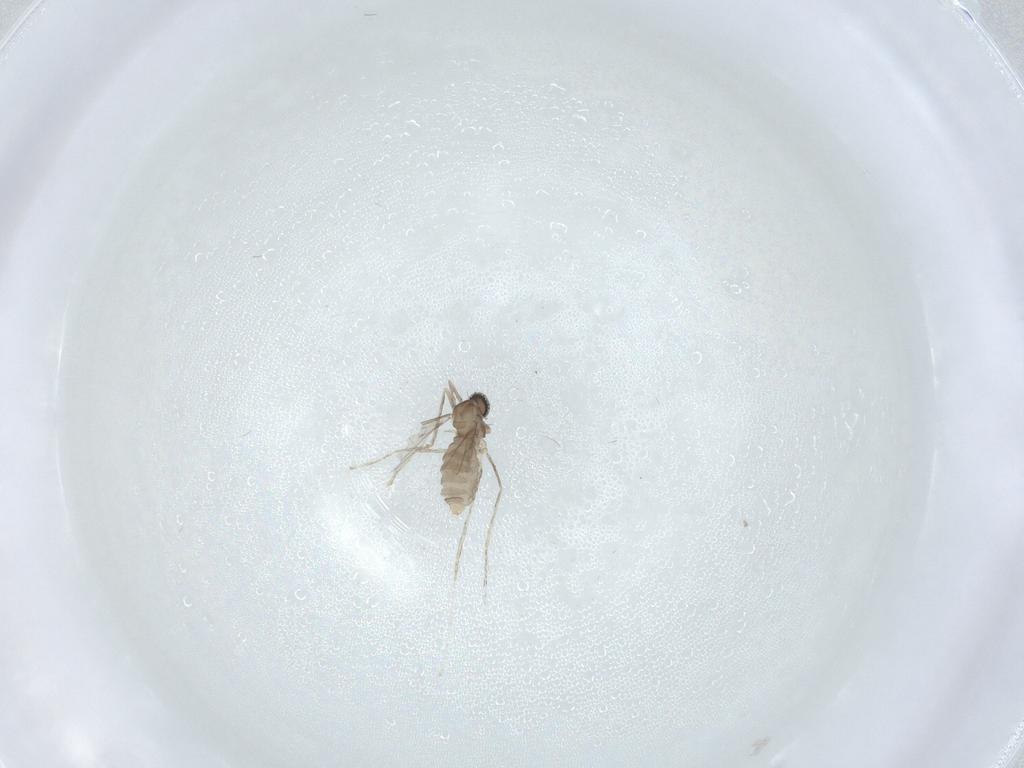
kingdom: Animalia
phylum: Arthropoda
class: Insecta
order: Diptera
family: Cecidomyiidae
